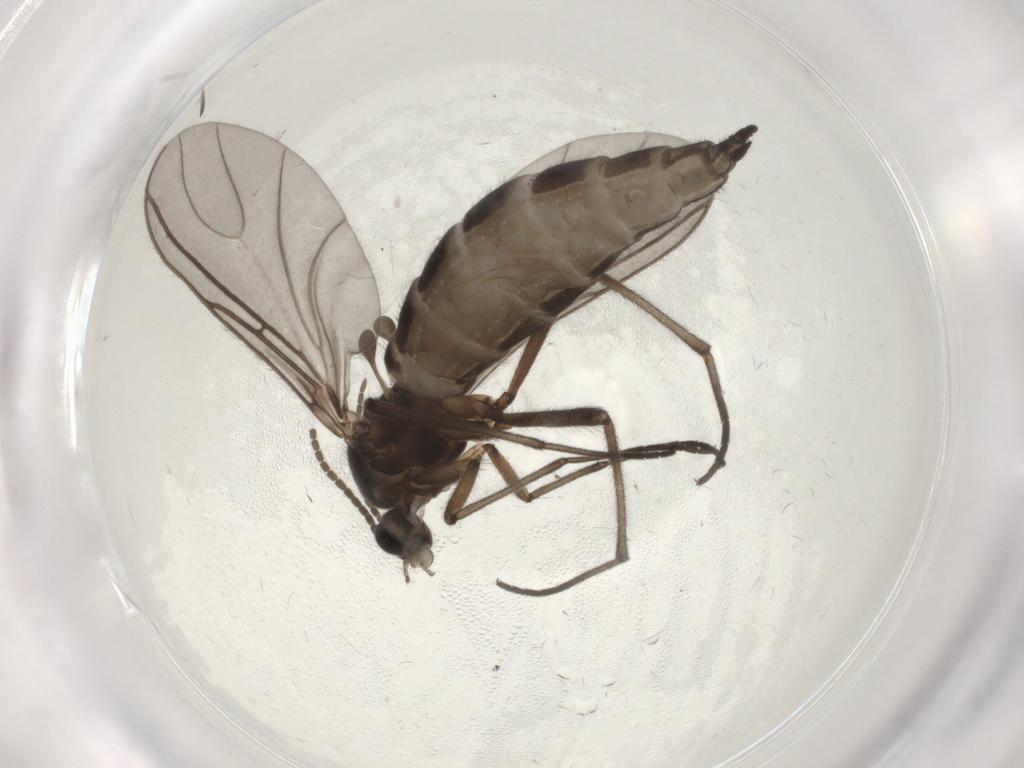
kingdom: Animalia
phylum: Arthropoda
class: Insecta
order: Diptera
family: Sciaridae
